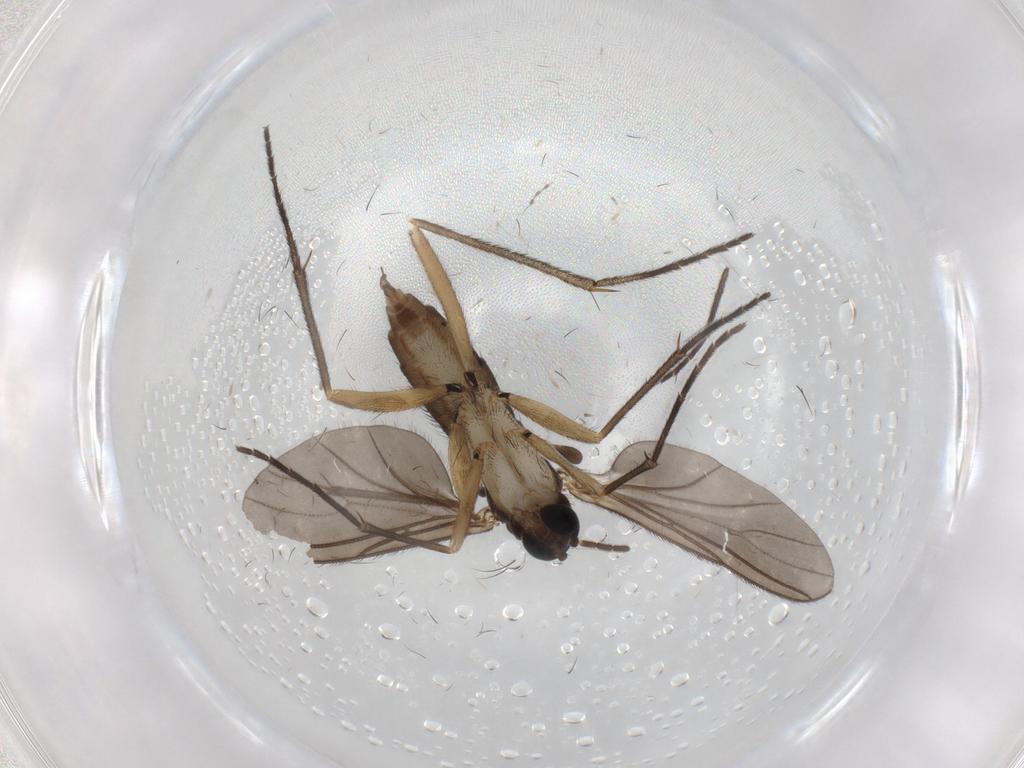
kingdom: Animalia
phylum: Arthropoda
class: Insecta
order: Diptera
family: Phoridae
